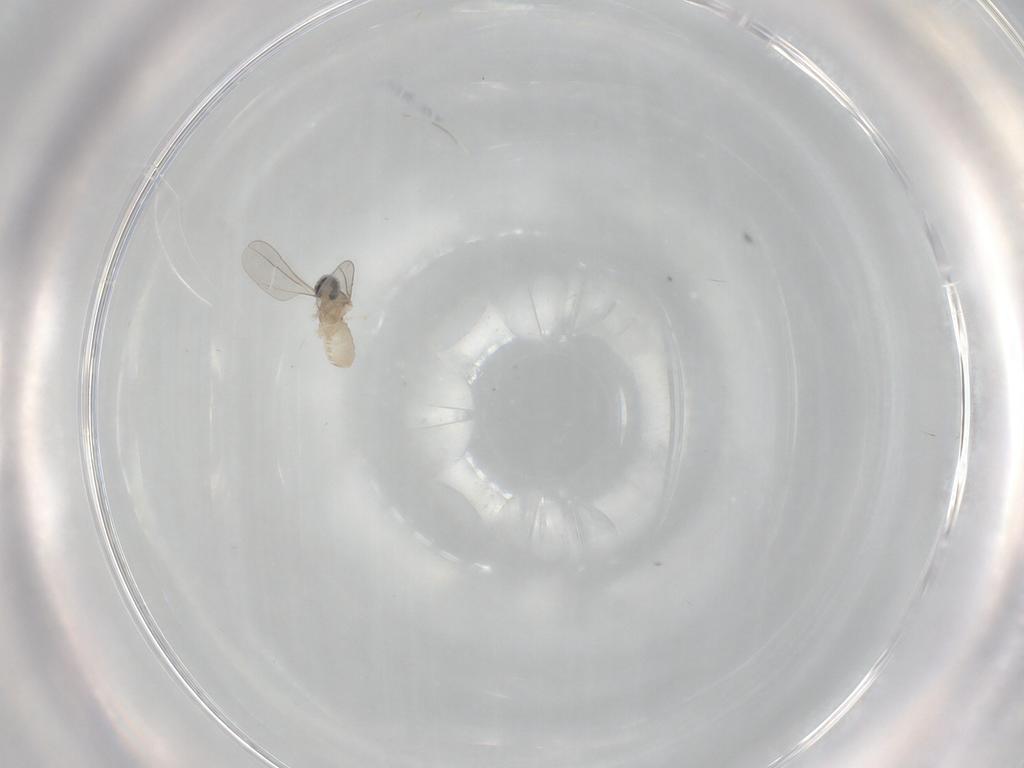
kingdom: Animalia
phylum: Arthropoda
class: Insecta
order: Diptera
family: Cecidomyiidae
